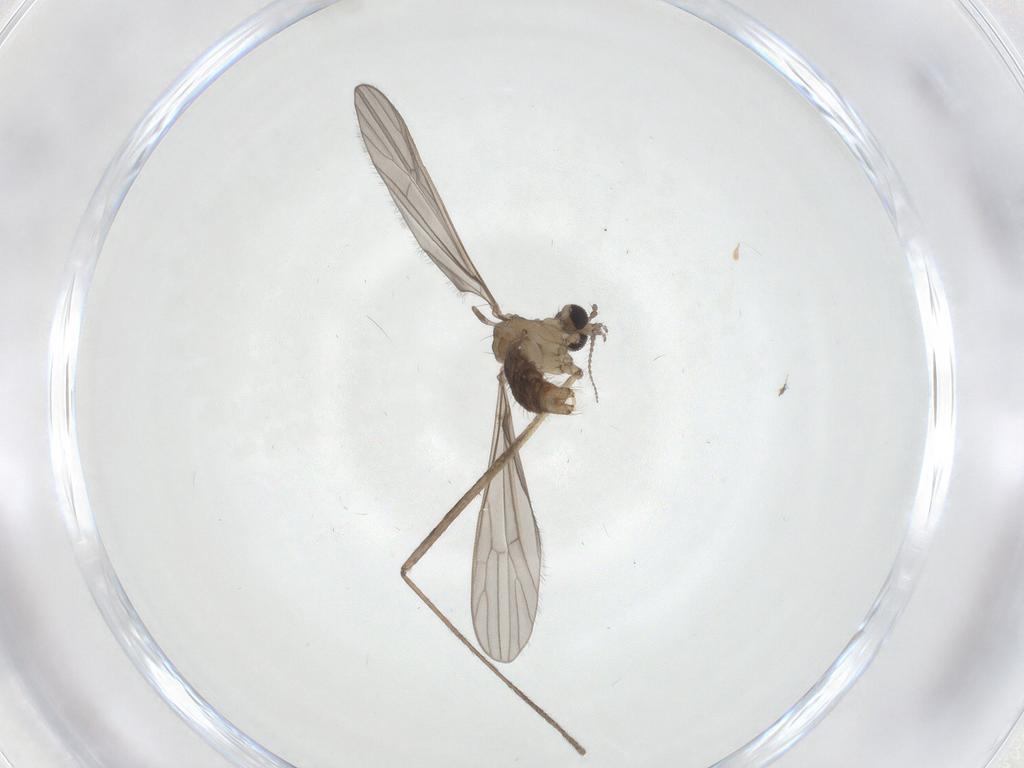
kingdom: Animalia
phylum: Arthropoda
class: Insecta
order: Diptera
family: Limoniidae
